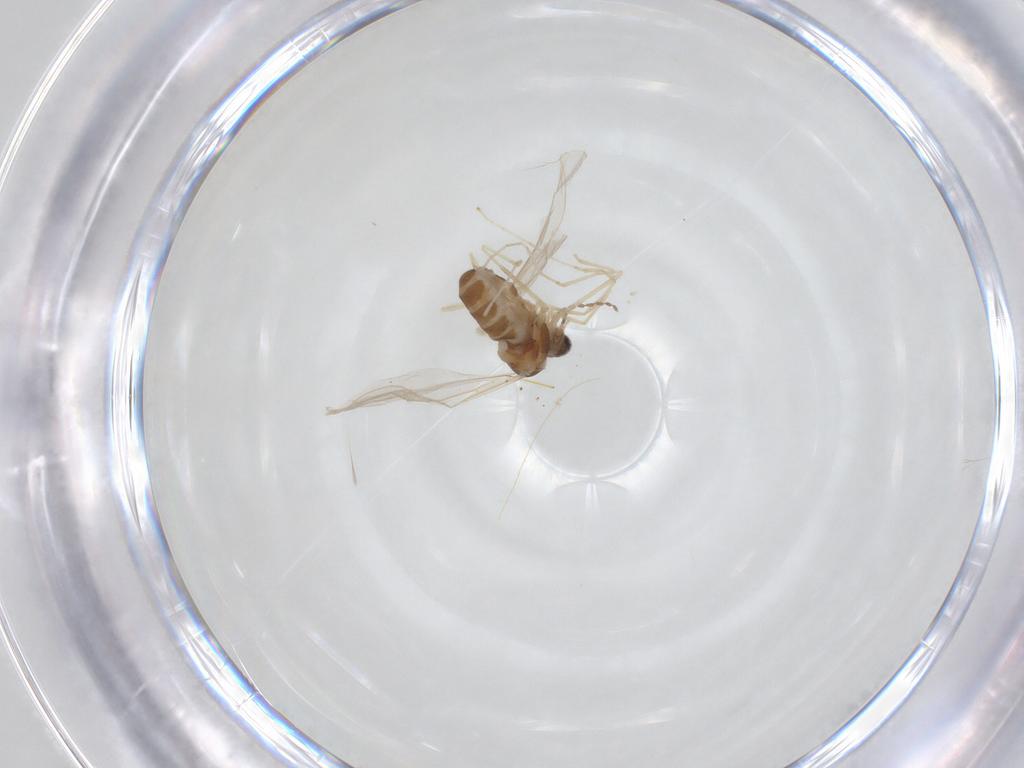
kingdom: Animalia
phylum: Arthropoda
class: Insecta
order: Diptera
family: Cecidomyiidae
